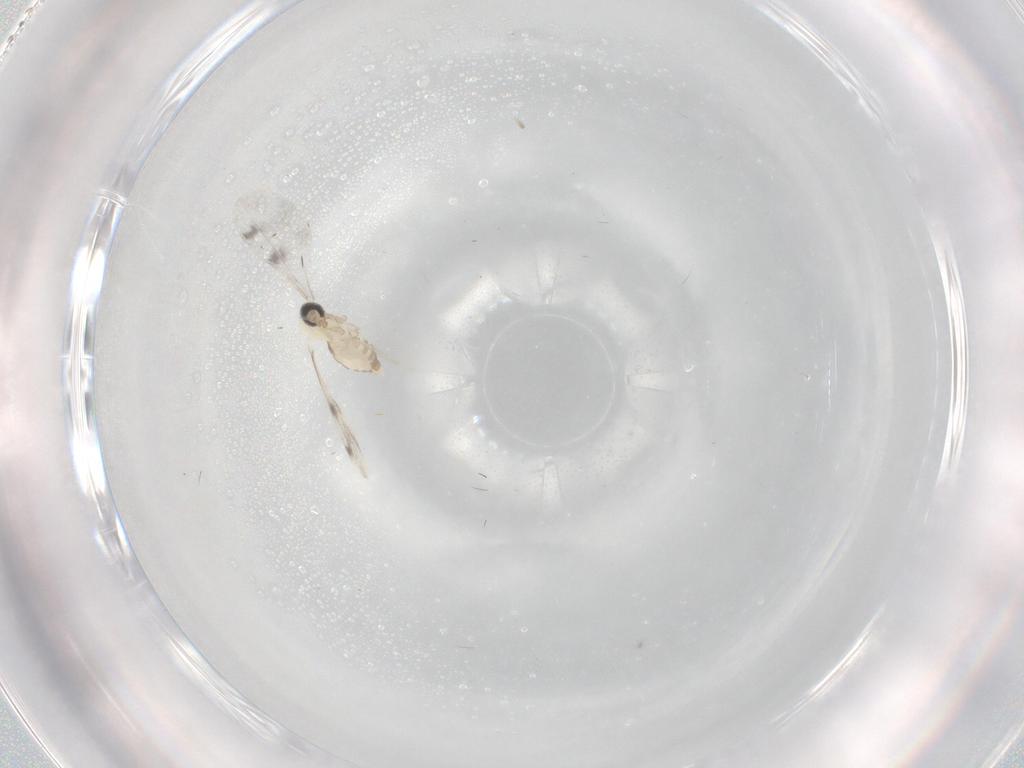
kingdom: Animalia
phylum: Arthropoda
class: Insecta
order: Diptera
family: Cecidomyiidae
